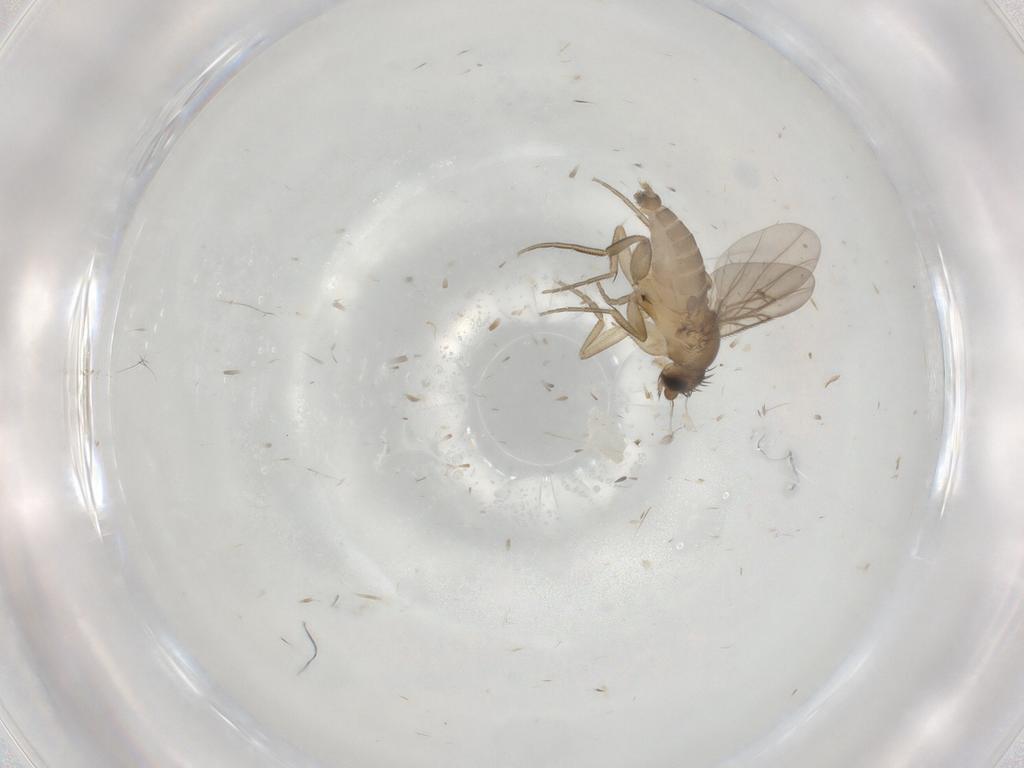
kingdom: Animalia
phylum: Arthropoda
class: Insecta
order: Diptera
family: Phoridae
